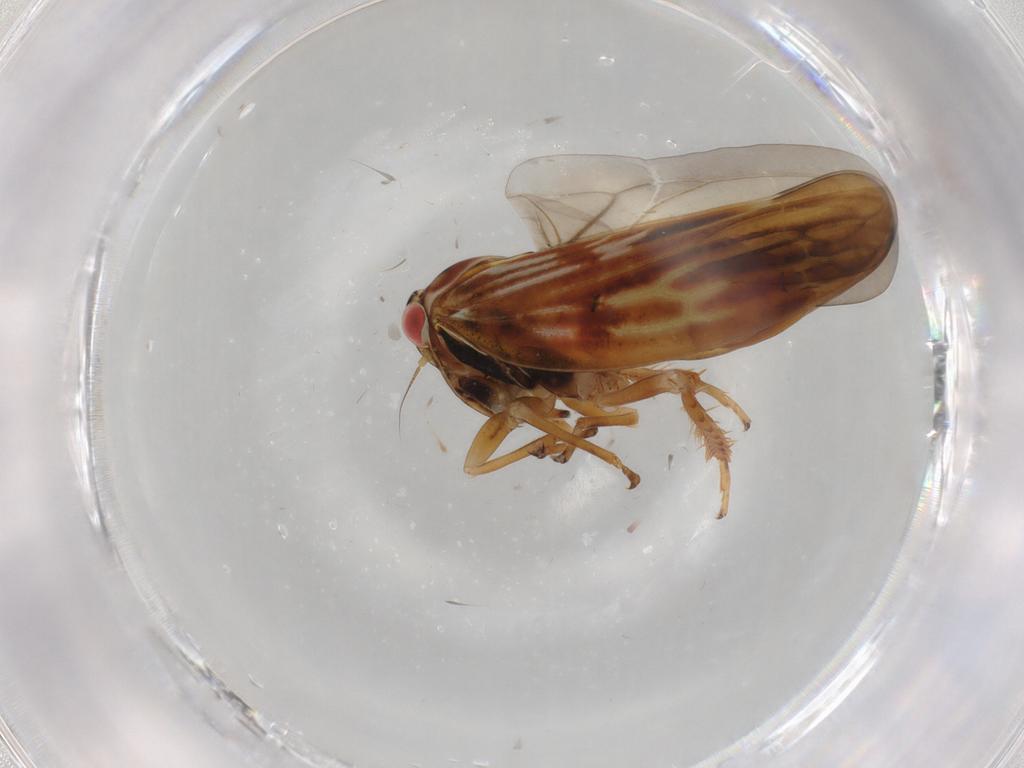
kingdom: Animalia
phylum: Arthropoda
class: Insecta
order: Hemiptera
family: Cicadellidae
